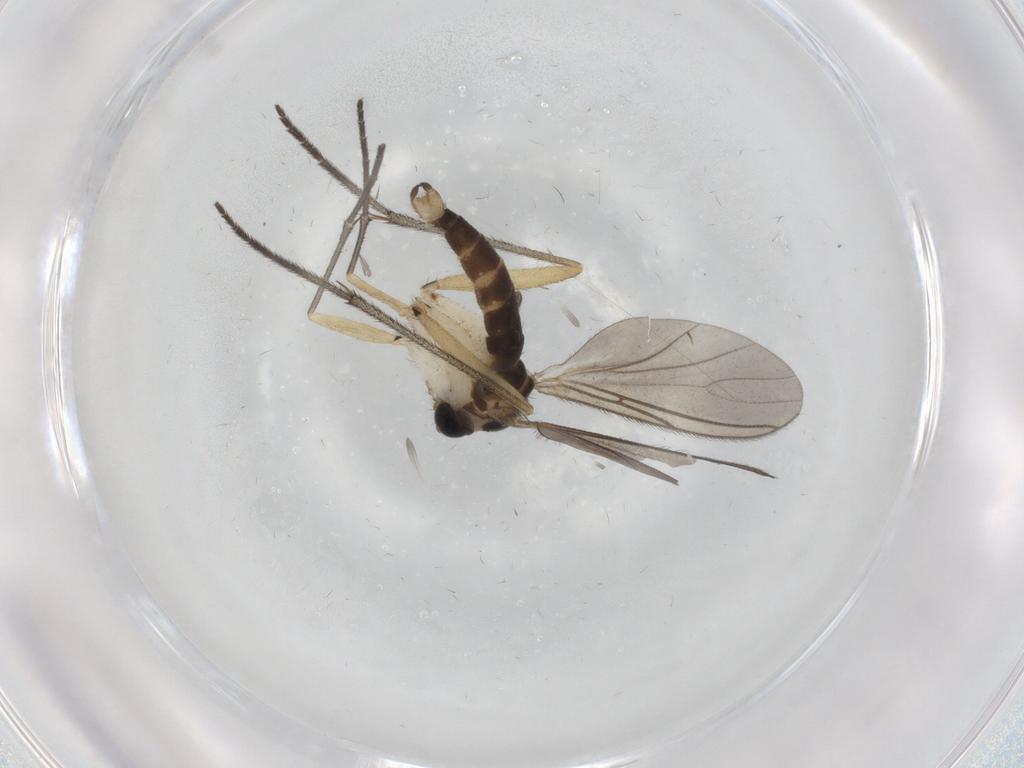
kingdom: Animalia
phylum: Arthropoda
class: Insecta
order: Diptera
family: Sciaridae
